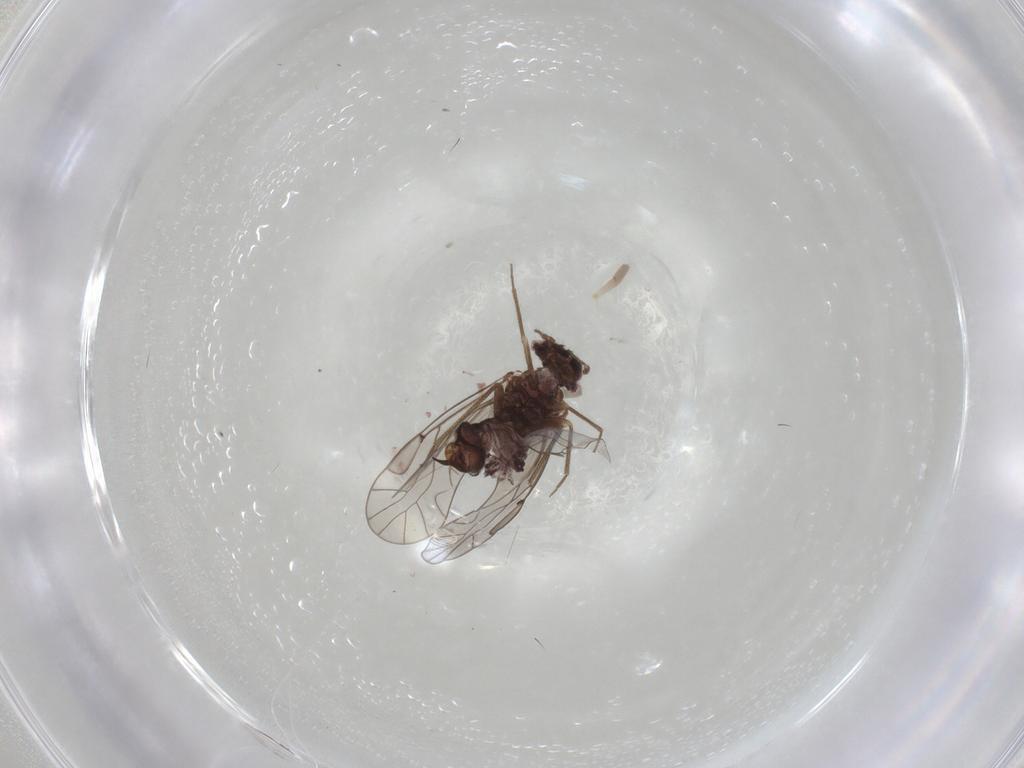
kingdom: Animalia
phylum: Arthropoda
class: Insecta
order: Psocodea
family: Lachesillidae
